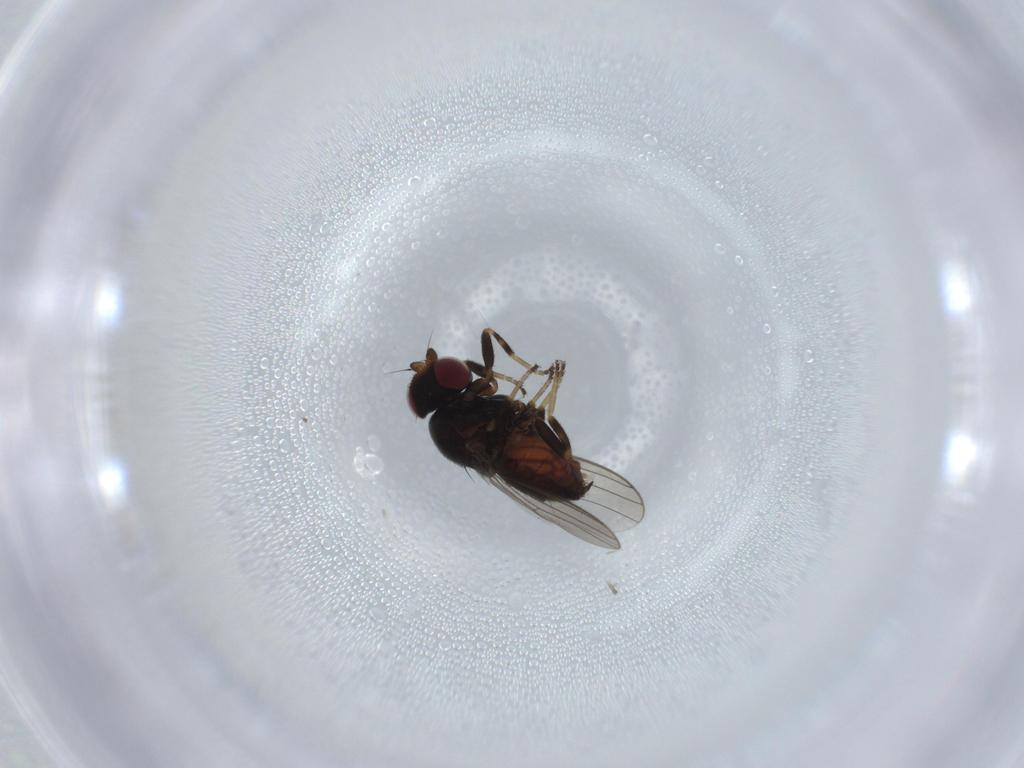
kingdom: Animalia
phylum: Arthropoda
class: Insecta
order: Diptera
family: Chloropidae
